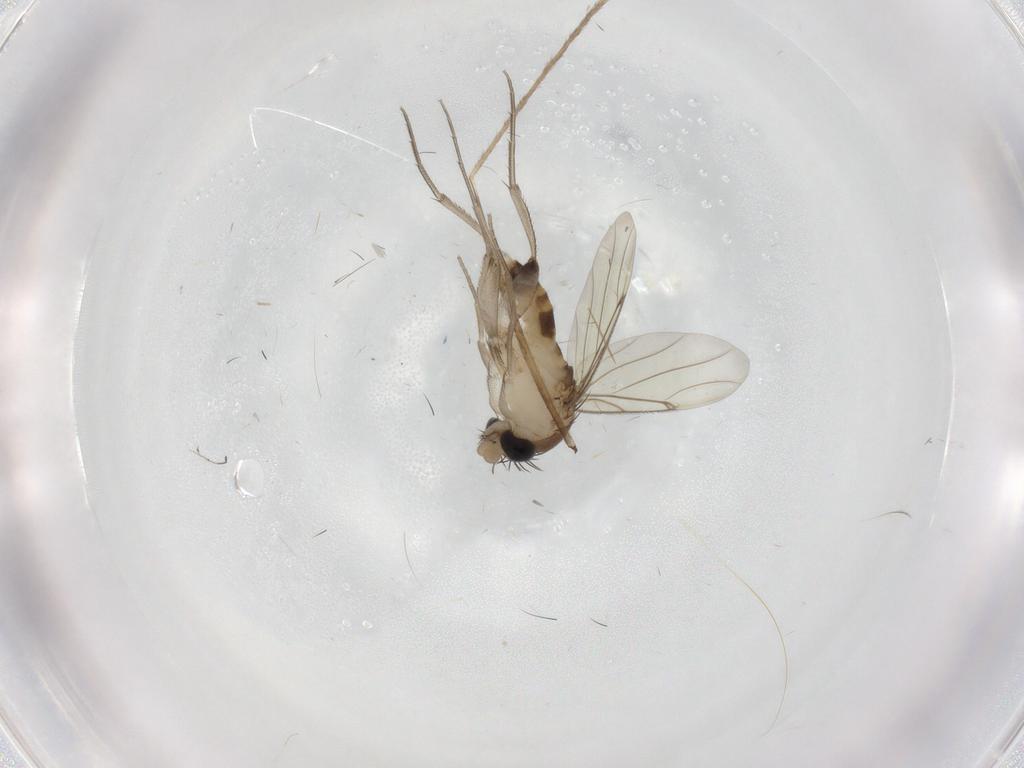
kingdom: Animalia
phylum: Arthropoda
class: Insecta
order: Diptera
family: Limoniidae
